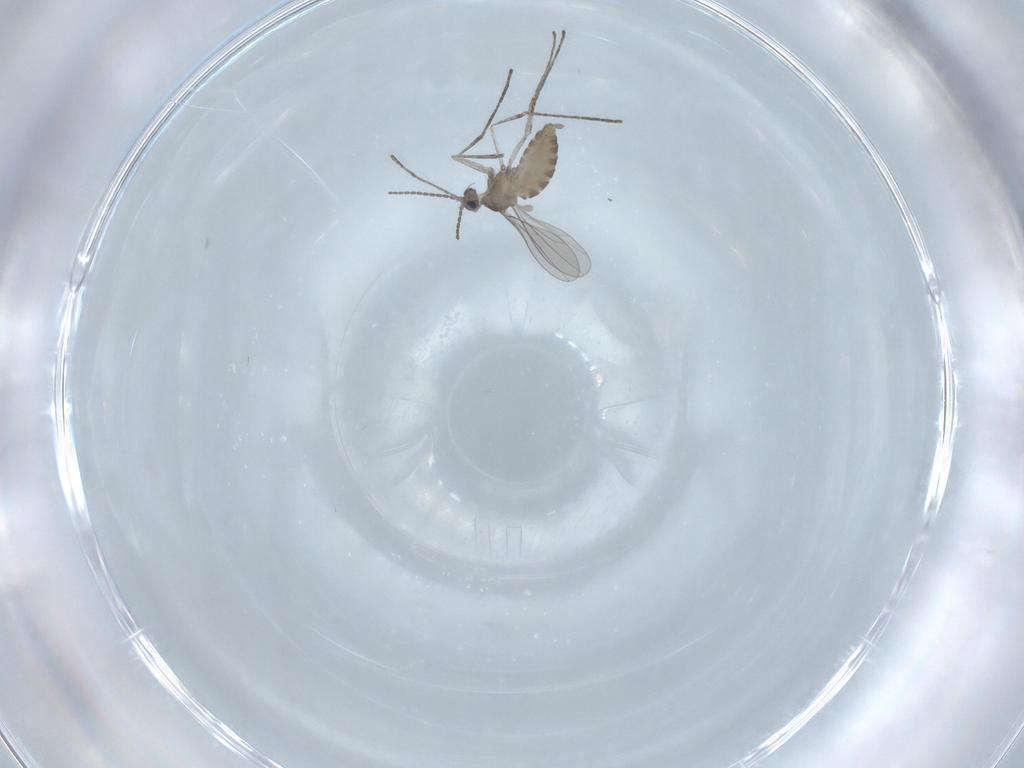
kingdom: Animalia
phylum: Arthropoda
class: Insecta
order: Diptera
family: Cecidomyiidae
